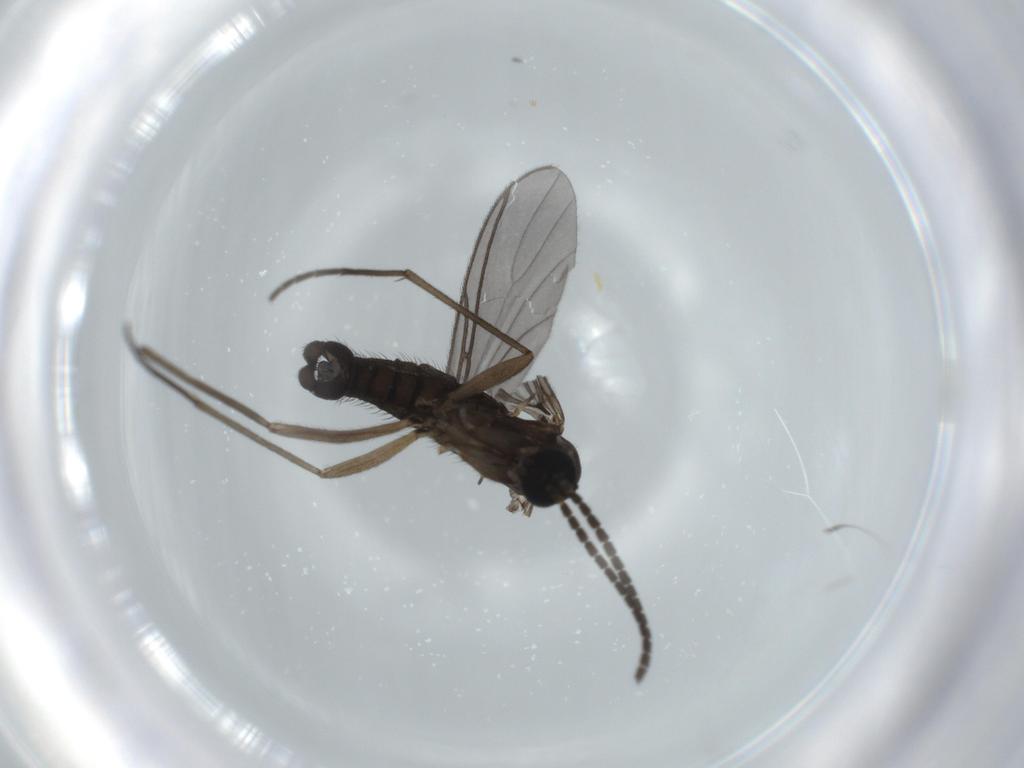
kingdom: Animalia
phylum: Arthropoda
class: Insecta
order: Diptera
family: Sciaridae
